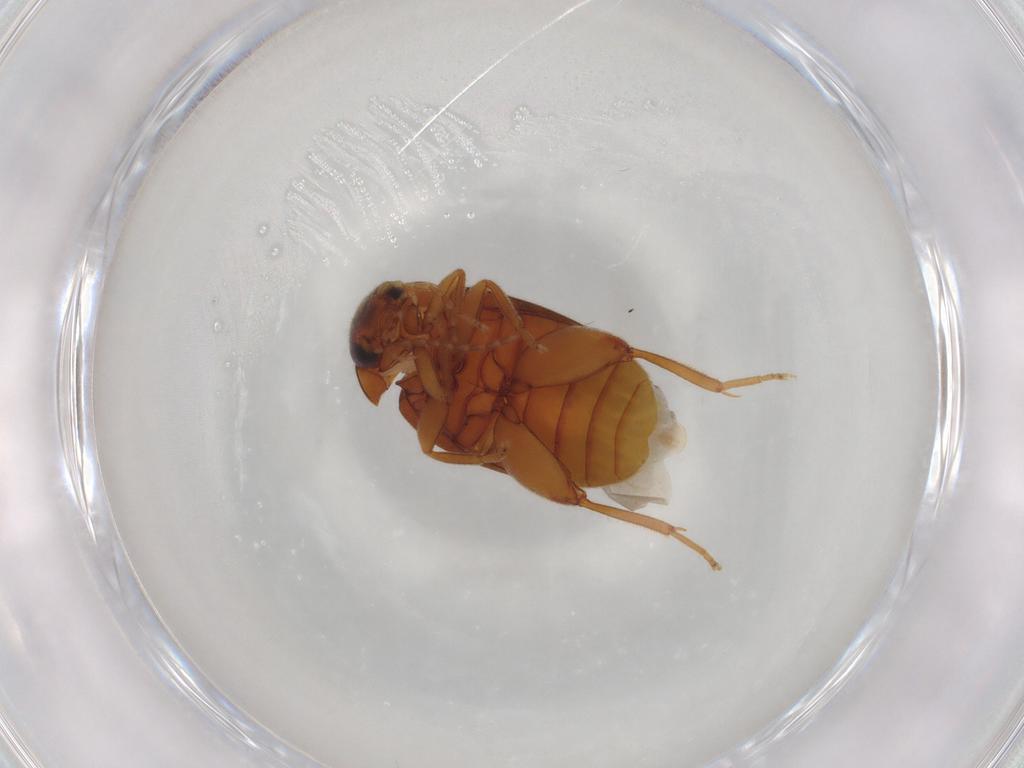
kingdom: Animalia
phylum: Arthropoda
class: Insecta
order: Coleoptera
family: Scirtidae
